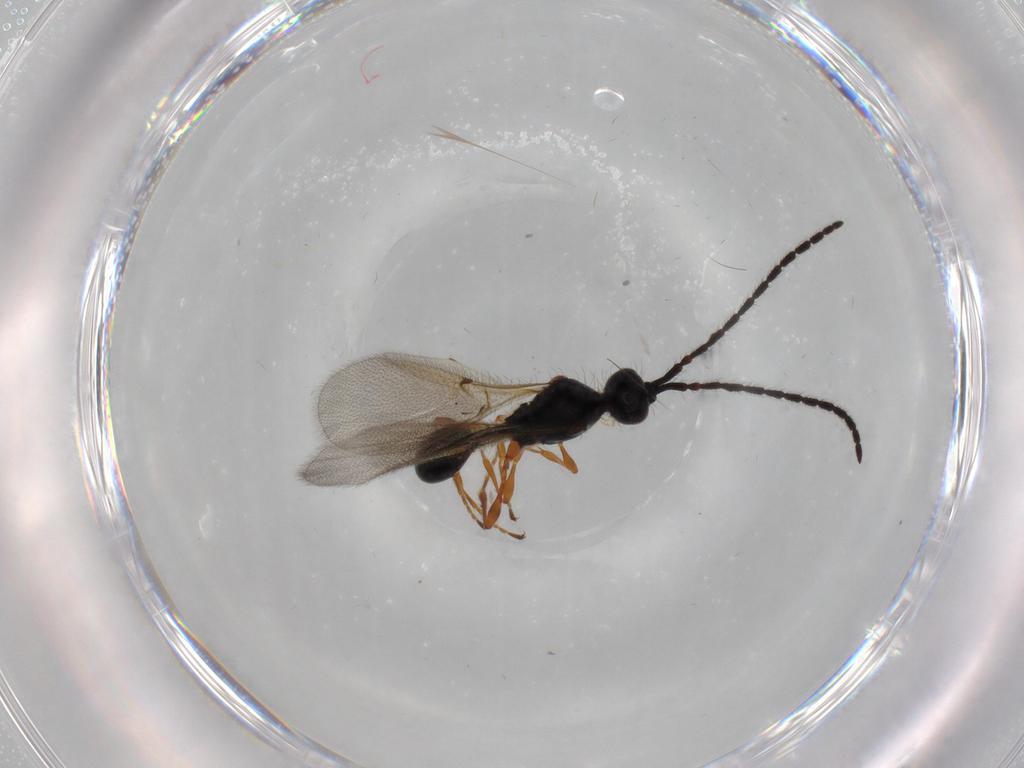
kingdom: Animalia
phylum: Arthropoda
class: Insecta
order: Hymenoptera
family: Diapriidae
